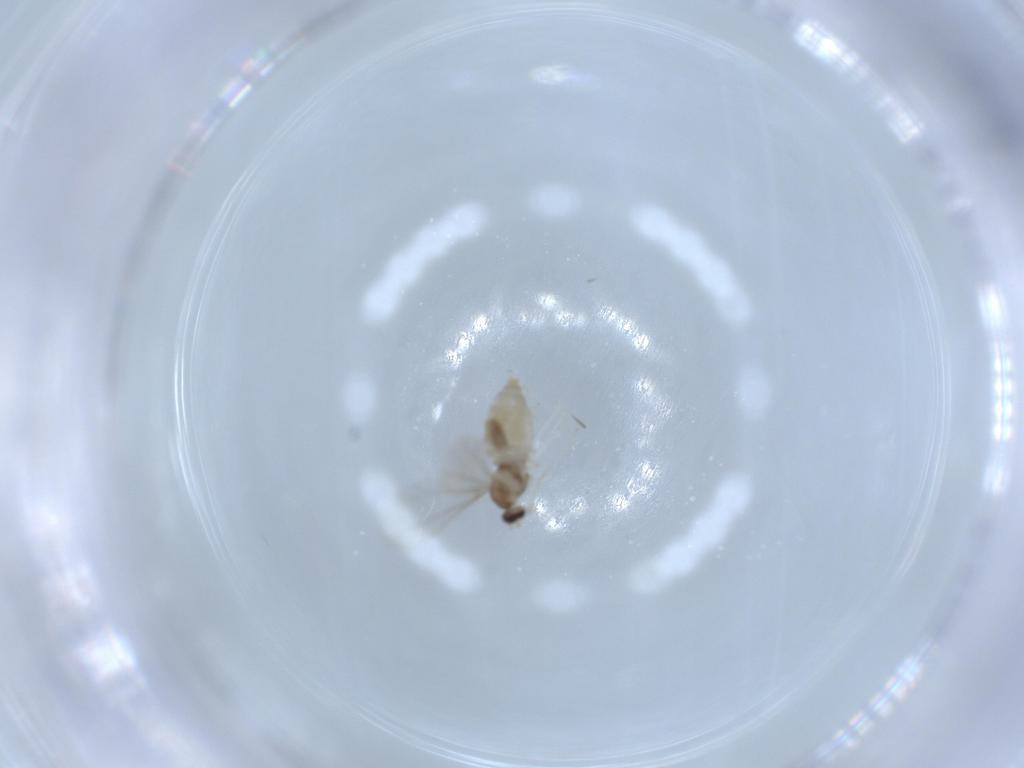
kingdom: Animalia
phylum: Arthropoda
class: Insecta
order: Diptera
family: Cecidomyiidae
